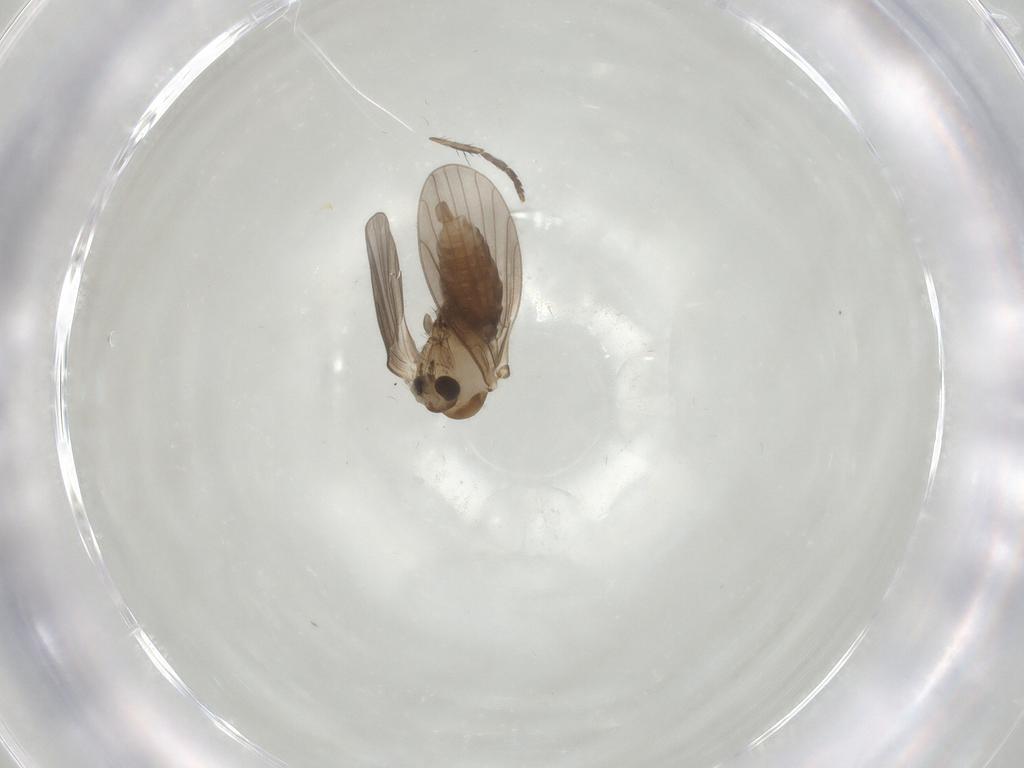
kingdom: Animalia
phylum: Arthropoda
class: Insecta
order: Diptera
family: Psychodidae
